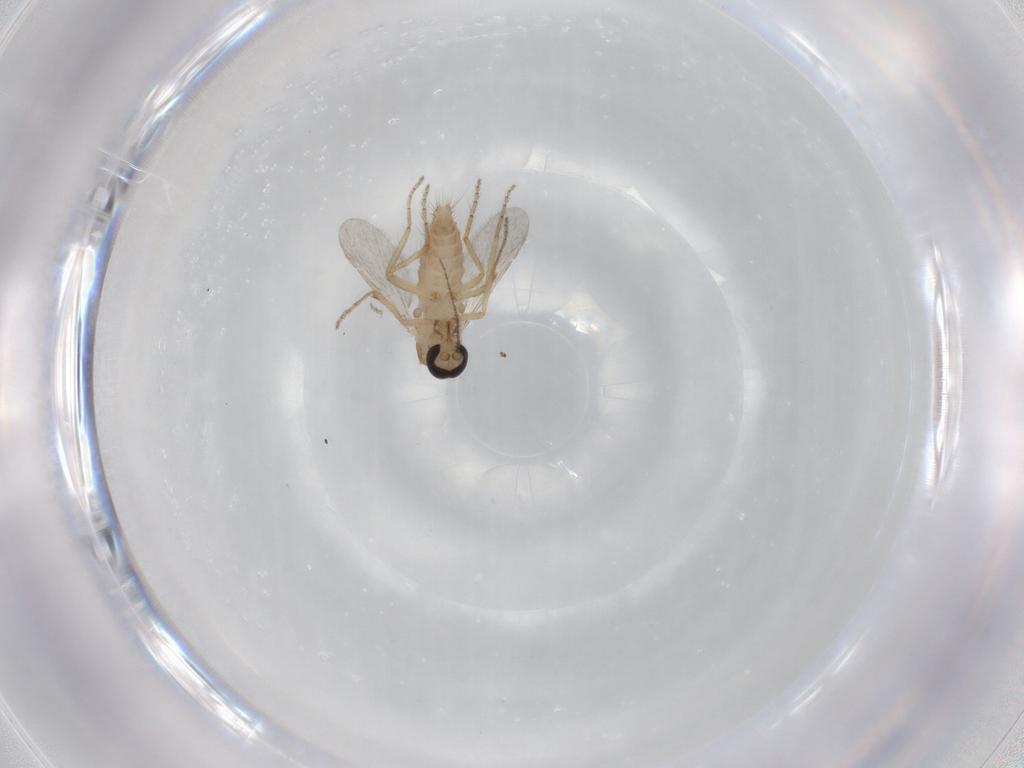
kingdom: Animalia
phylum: Arthropoda
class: Insecta
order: Diptera
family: Ceratopogonidae
